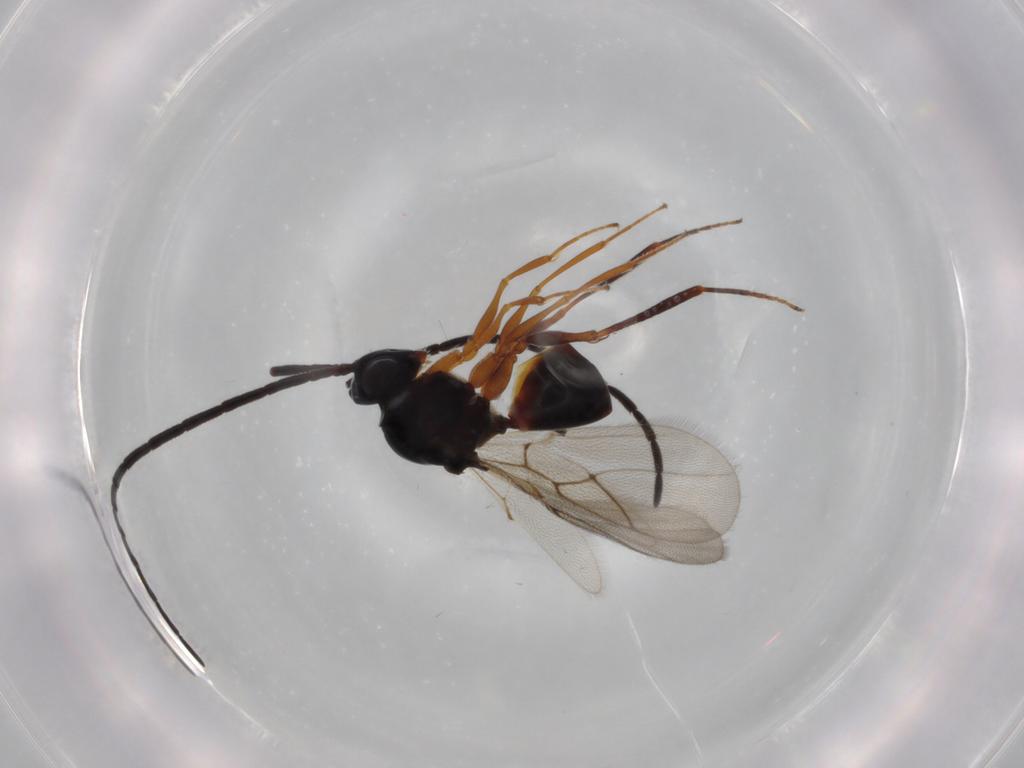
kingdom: Animalia
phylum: Arthropoda
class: Insecta
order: Hymenoptera
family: Figitidae
